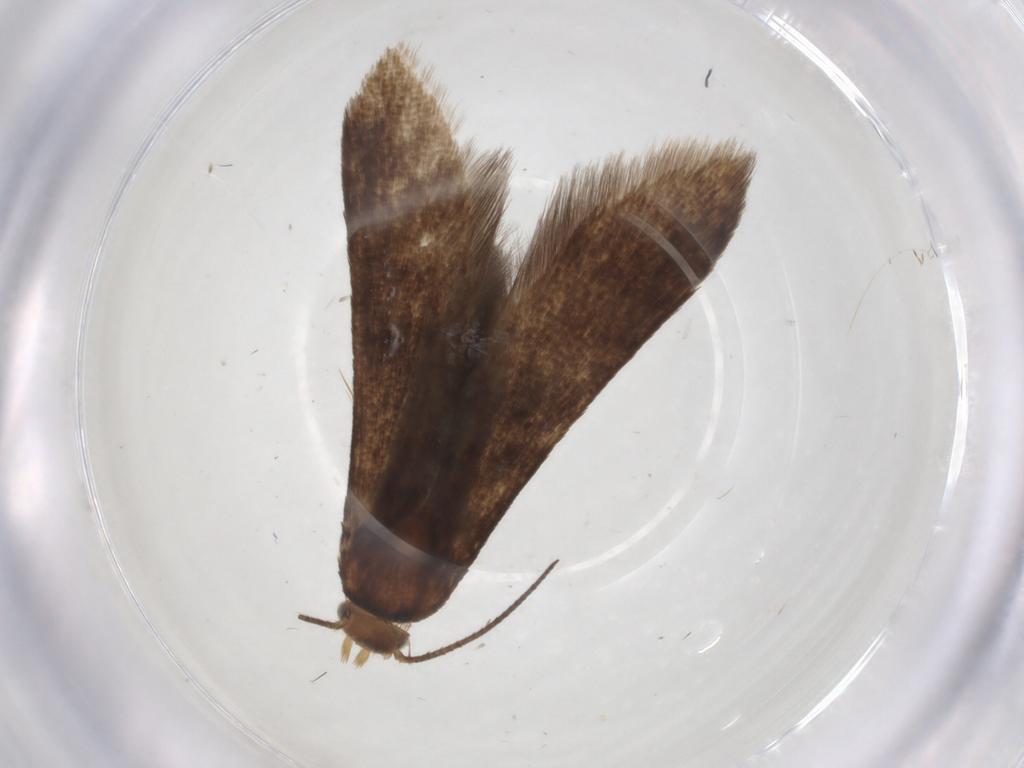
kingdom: Animalia
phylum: Arthropoda
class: Insecta
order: Lepidoptera
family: Oecophoridae
